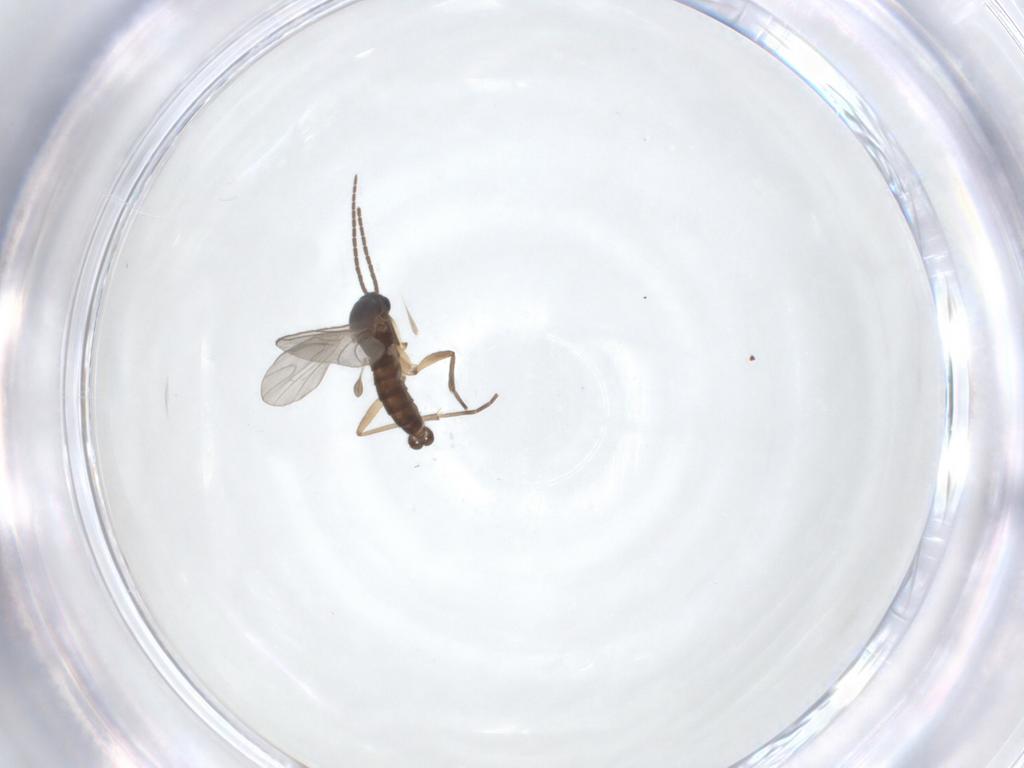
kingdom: Animalia
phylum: Arthropoda
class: Insecta
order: Diptera
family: Sciaridae
